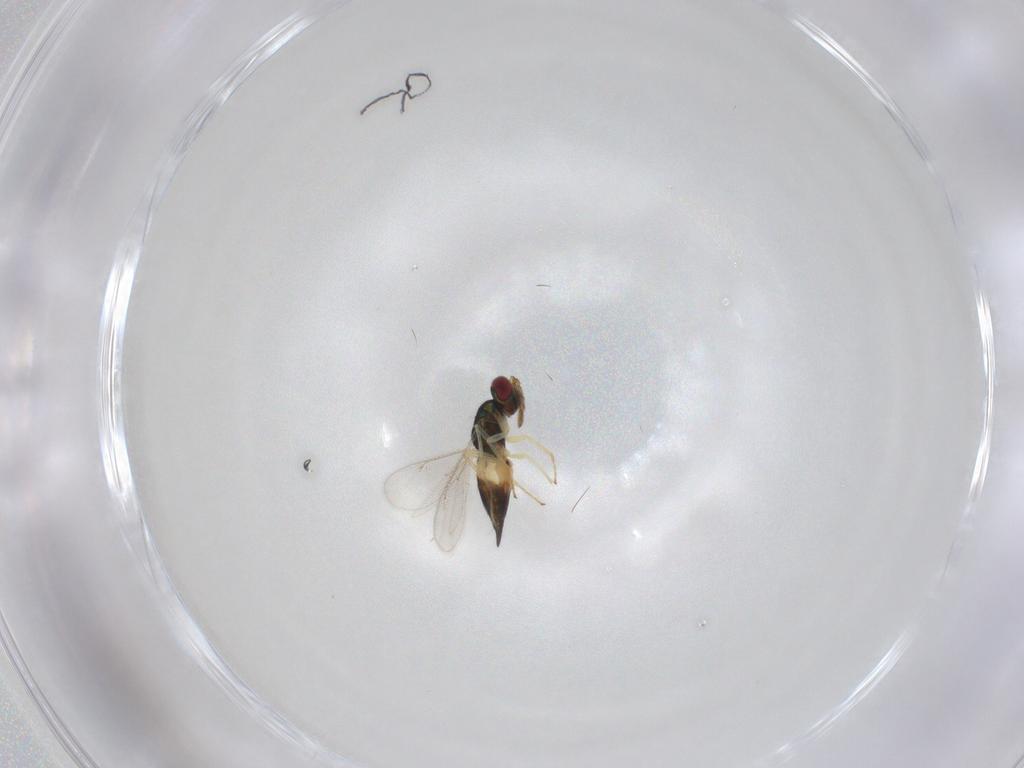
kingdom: Animalia
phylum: Arthropoda
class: Insecta
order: Hymenoptera
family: Eulophidae
